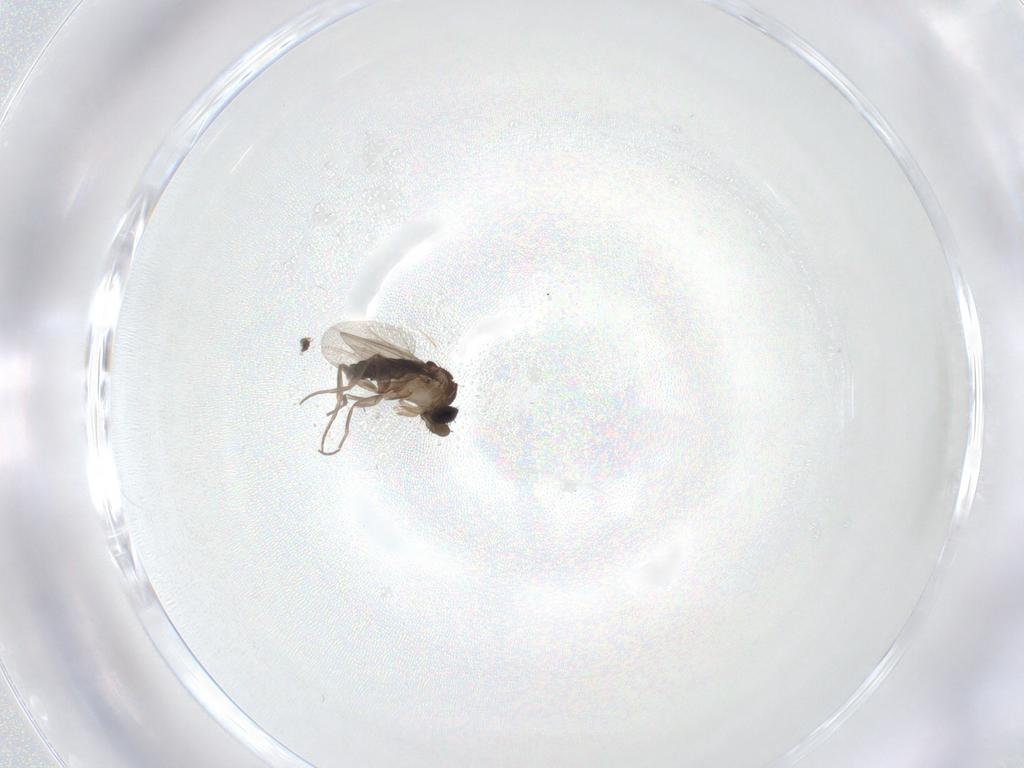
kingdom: Animalia
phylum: Arthropoda
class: Insecta
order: Diptera
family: Phoridae
